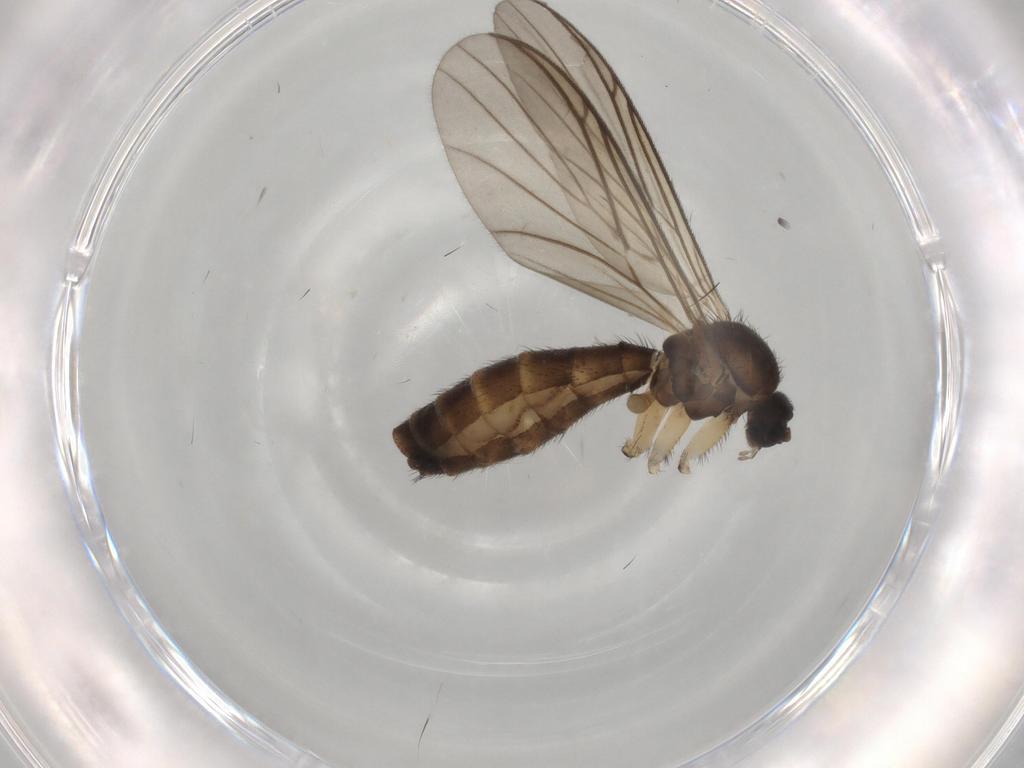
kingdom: Animalia
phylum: Arthropoda
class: Insecta
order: Diptera
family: Keroplatidae
